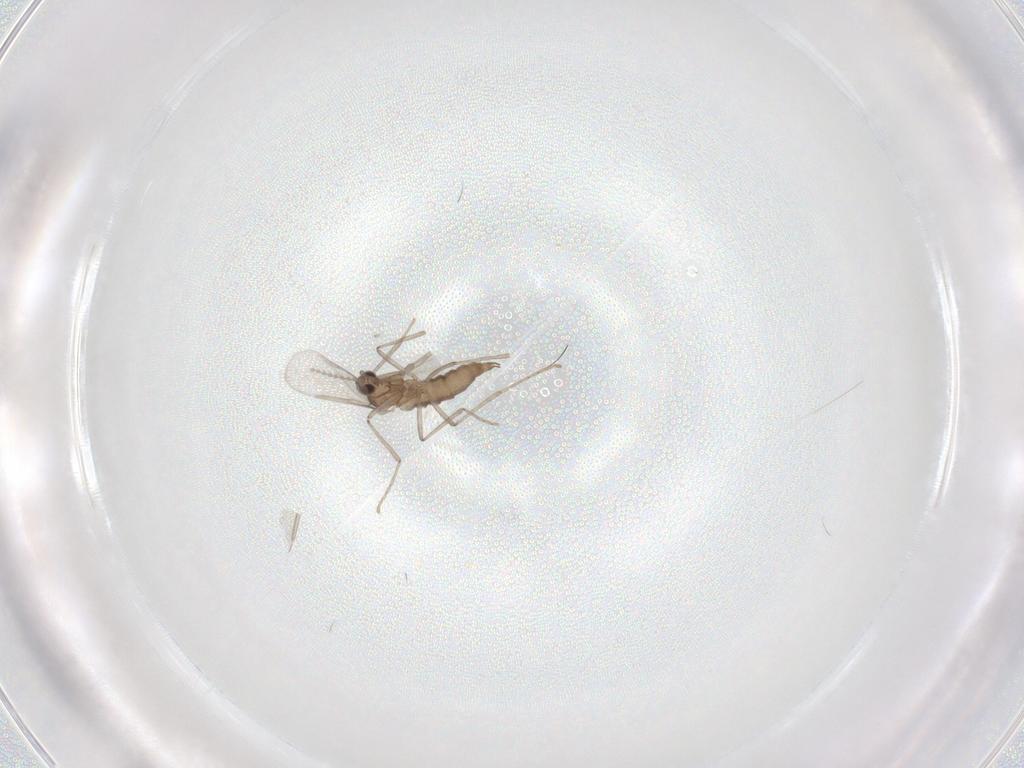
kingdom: Animalia
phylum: Arthropoda
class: Insecta
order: Diptera
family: Cecidomyiidae
